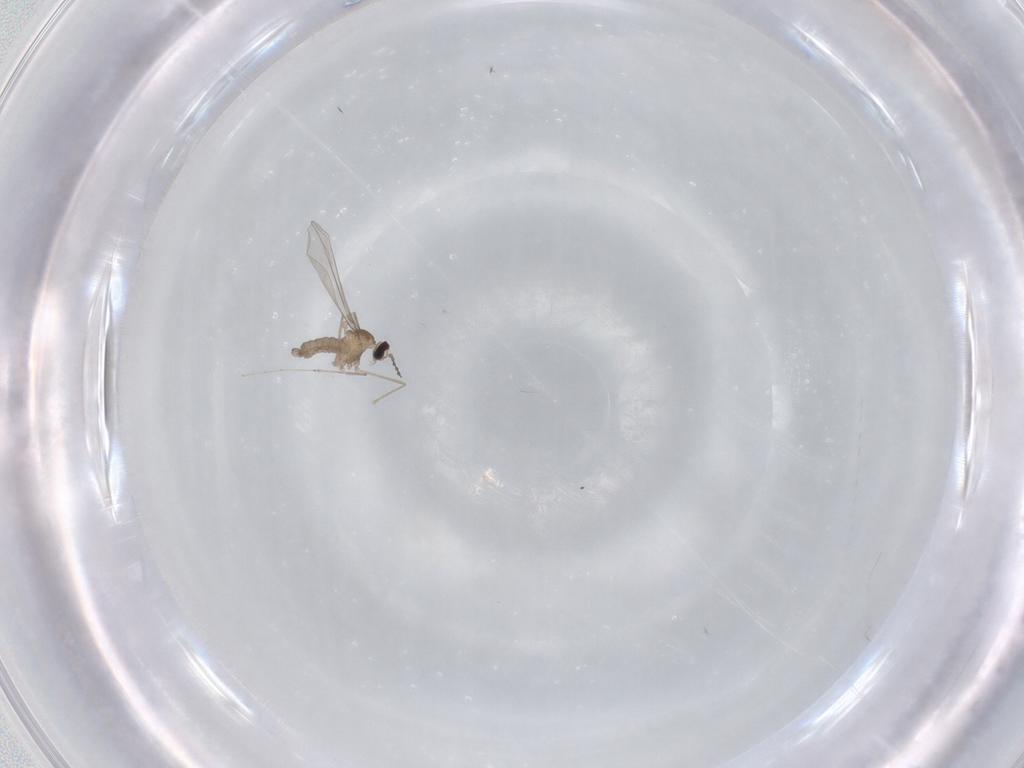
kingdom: Animalia
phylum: Arthropoda
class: Insecta
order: Diptera
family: Cecidomyiidae
